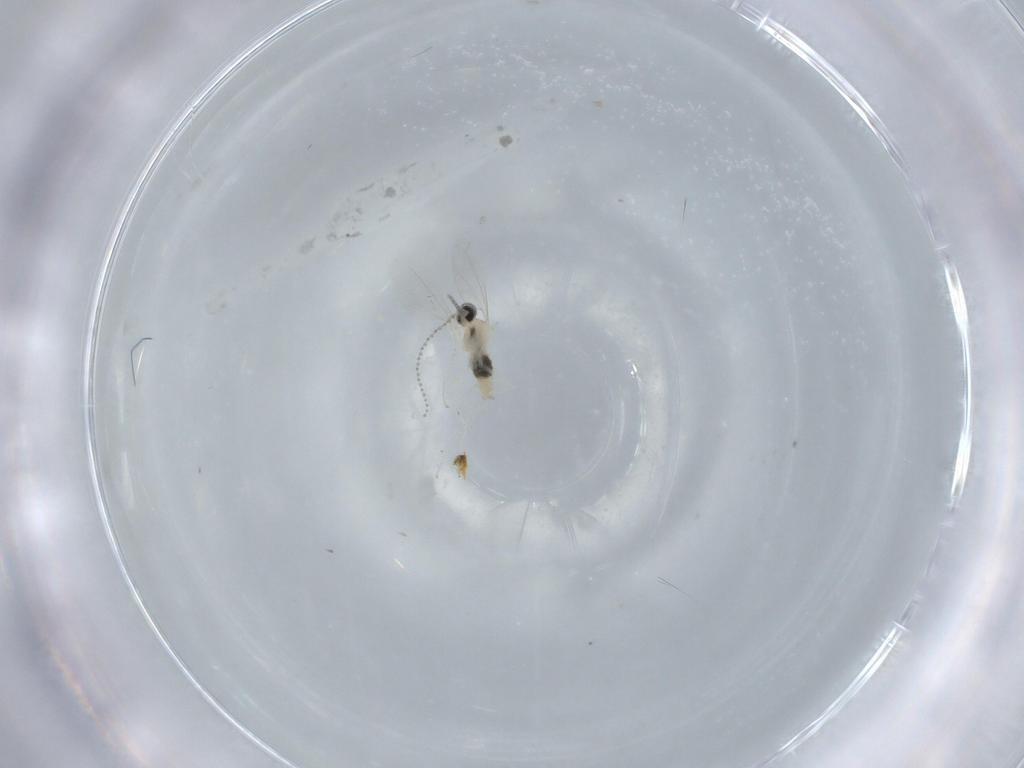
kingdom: Animalia
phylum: Arthropoda
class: Insecta
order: Diptera
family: Cecidomyiidae
